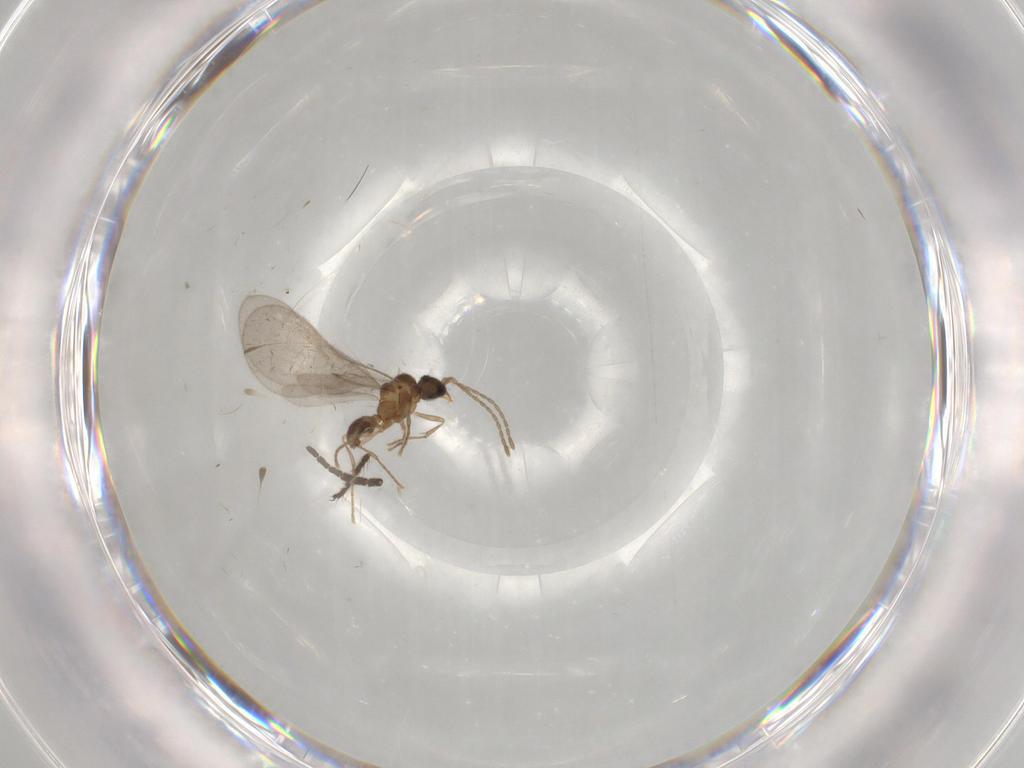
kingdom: Animalia
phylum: Arthropoda
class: Insecta
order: Hymenoptera
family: Formicidae
